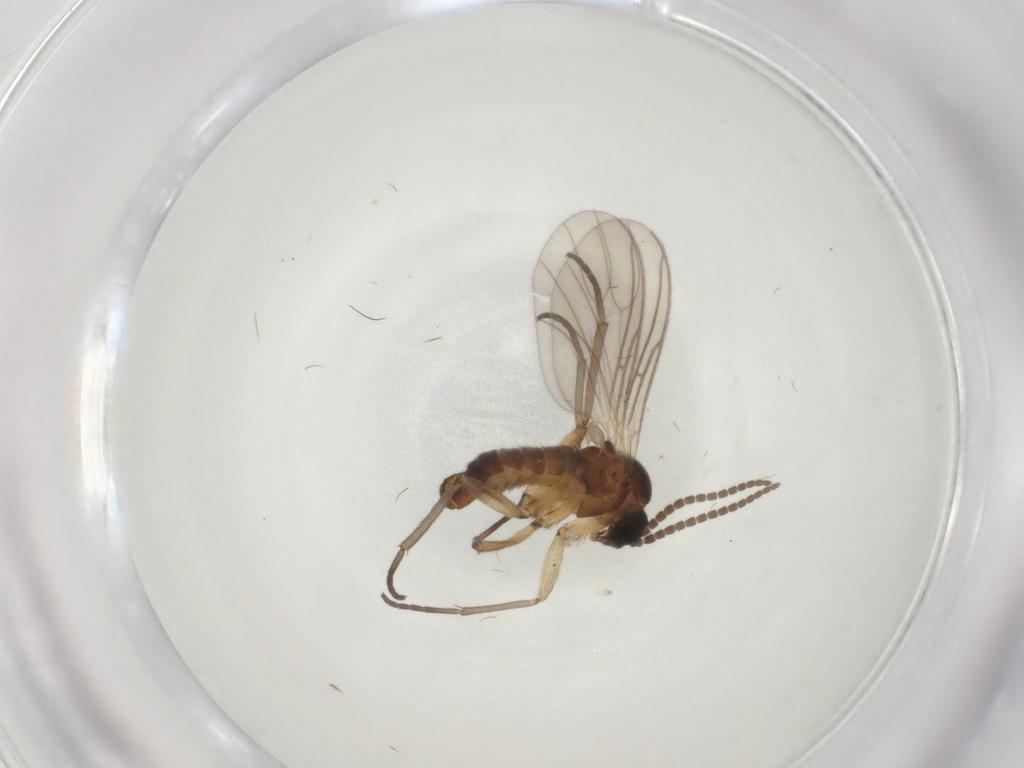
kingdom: Animalia
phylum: Arthropoda
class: Insecta
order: Diptera
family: Sciaridae
